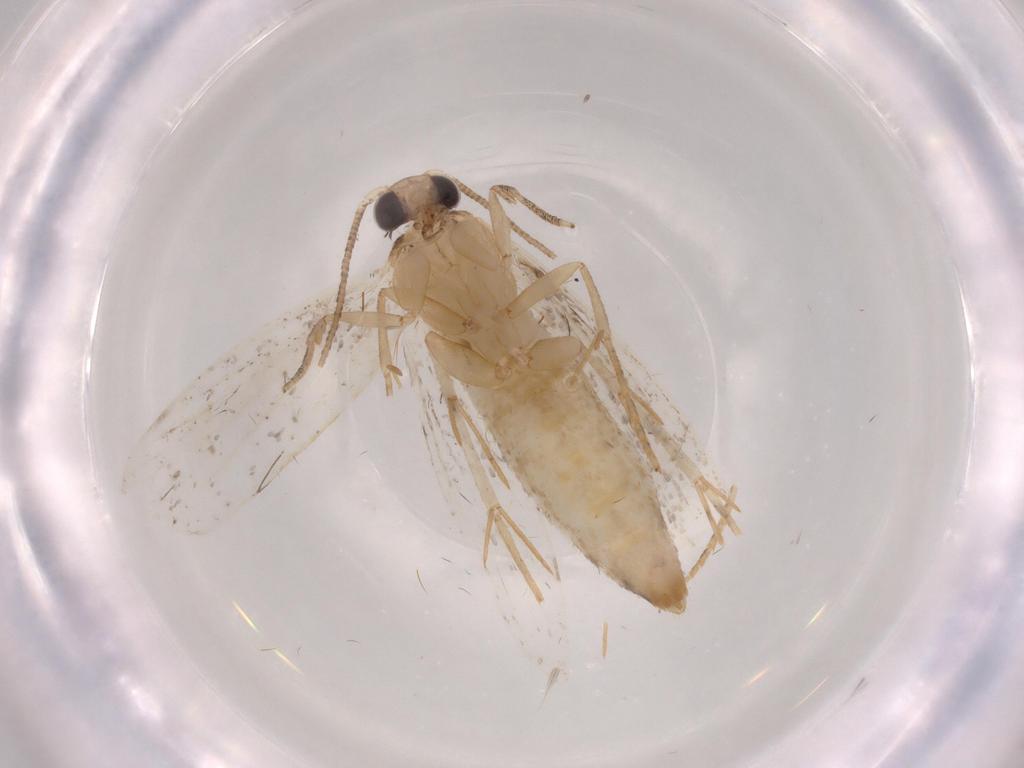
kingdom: Animalia
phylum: Arthropoda
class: Insecta
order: Lepidoptera
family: Tineidae
